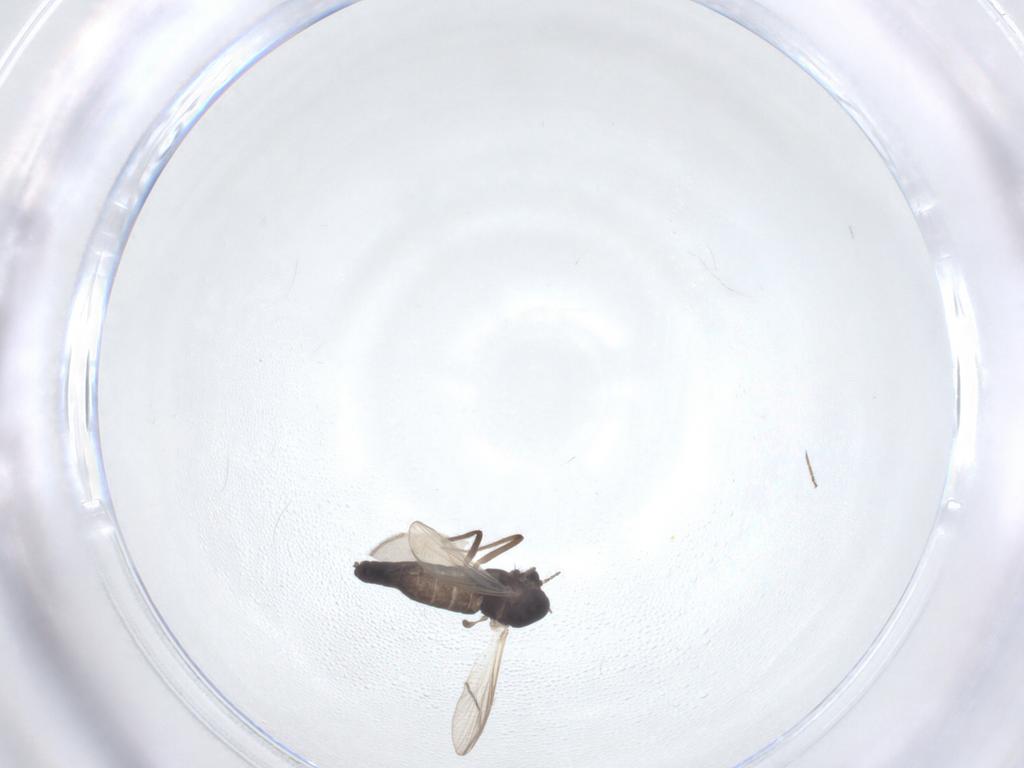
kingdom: Animalia
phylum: Arthropoda
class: Insecta
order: Diptera
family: Chironomidae
